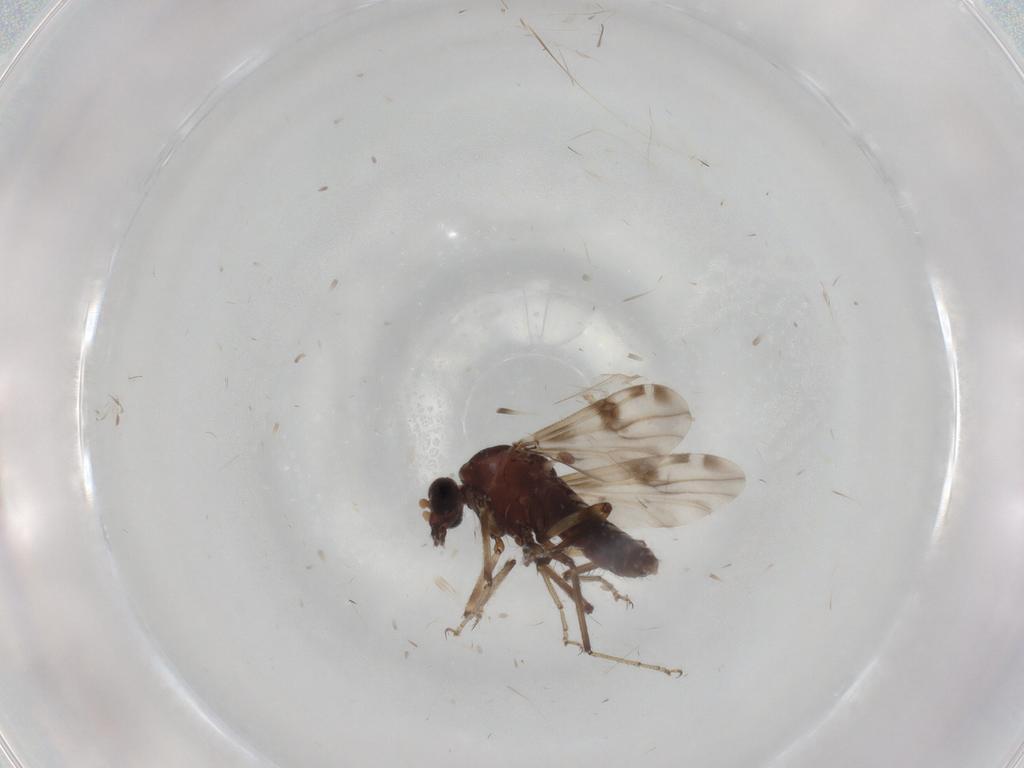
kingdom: Animalia
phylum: Arthropoda
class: Insecta
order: Diptera
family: Ceratopogonidae
